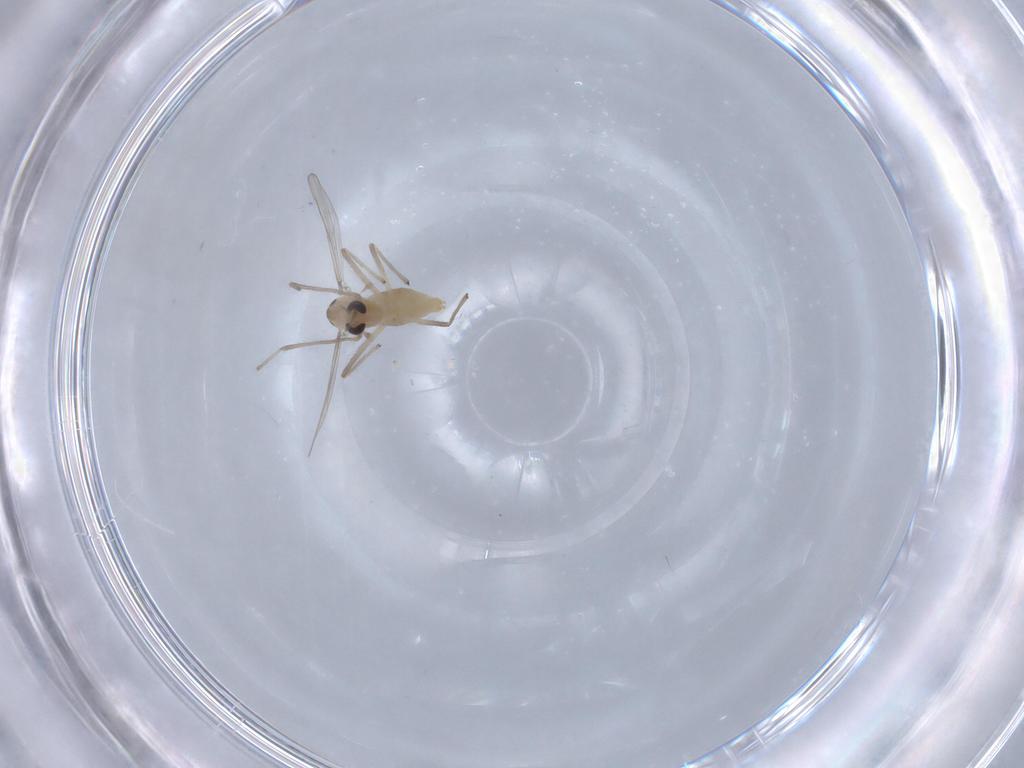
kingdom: Animalia
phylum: Arthropoda
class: Insecta
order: Diptera
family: Chironomidae
